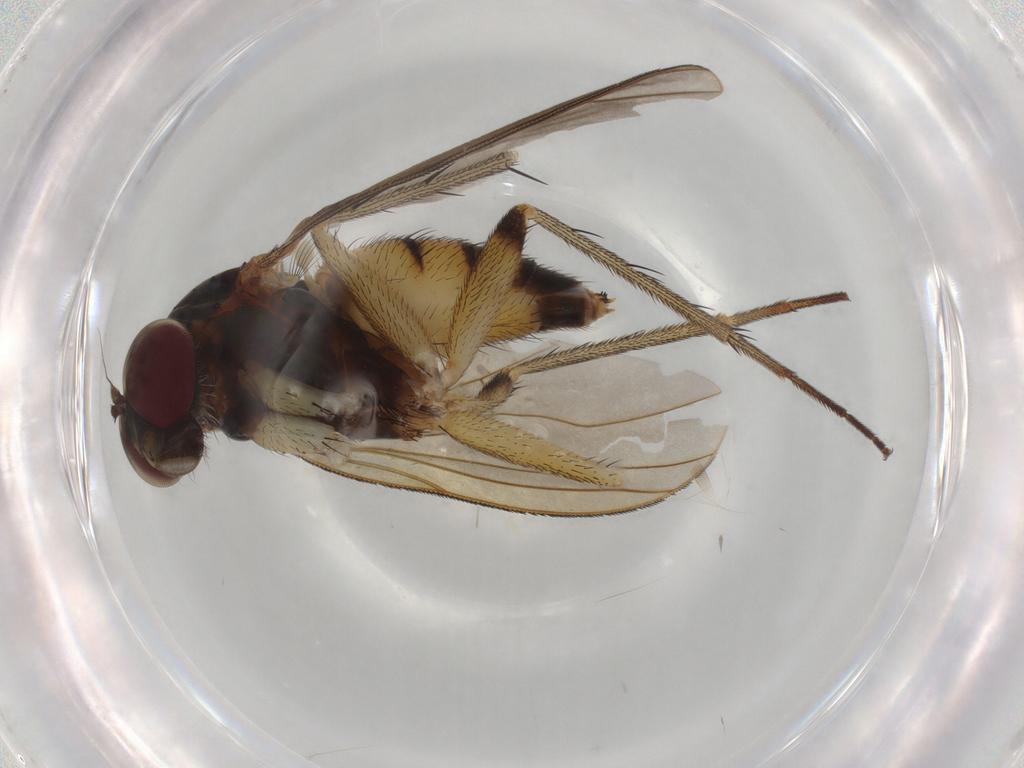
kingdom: Animalia
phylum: Arthropoda
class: Insecta
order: Diptera
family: Dolichopodidae
